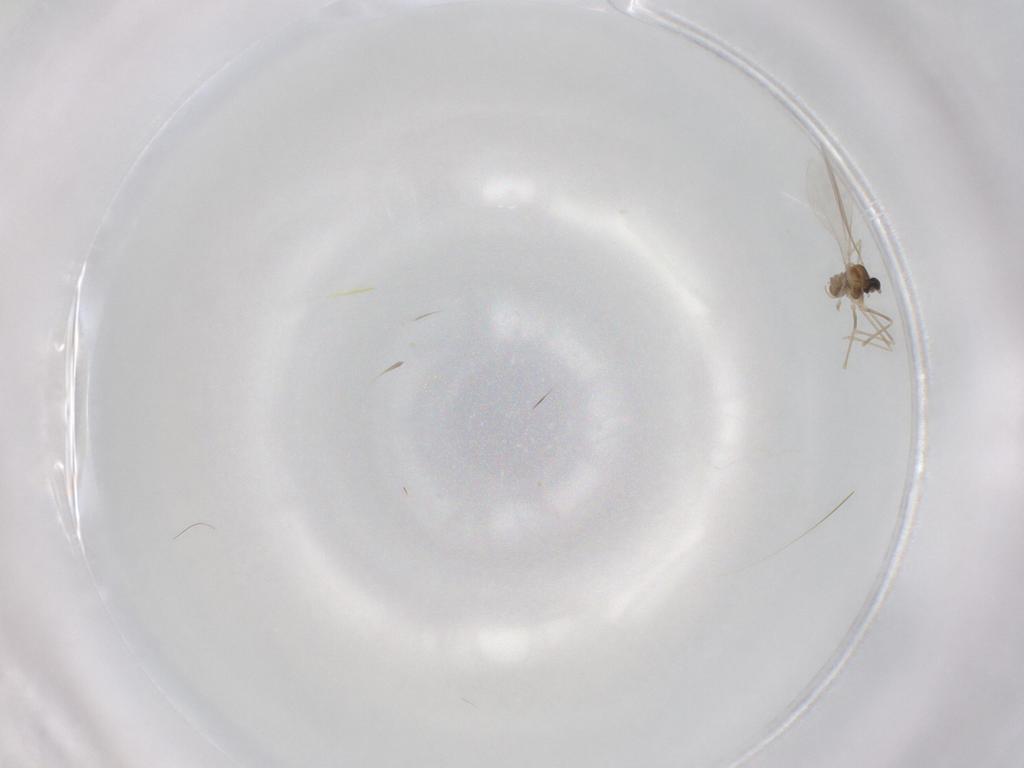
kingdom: Animalia
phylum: Arthropoda
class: Insecta
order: Diptera
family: Cecidomyiidae
